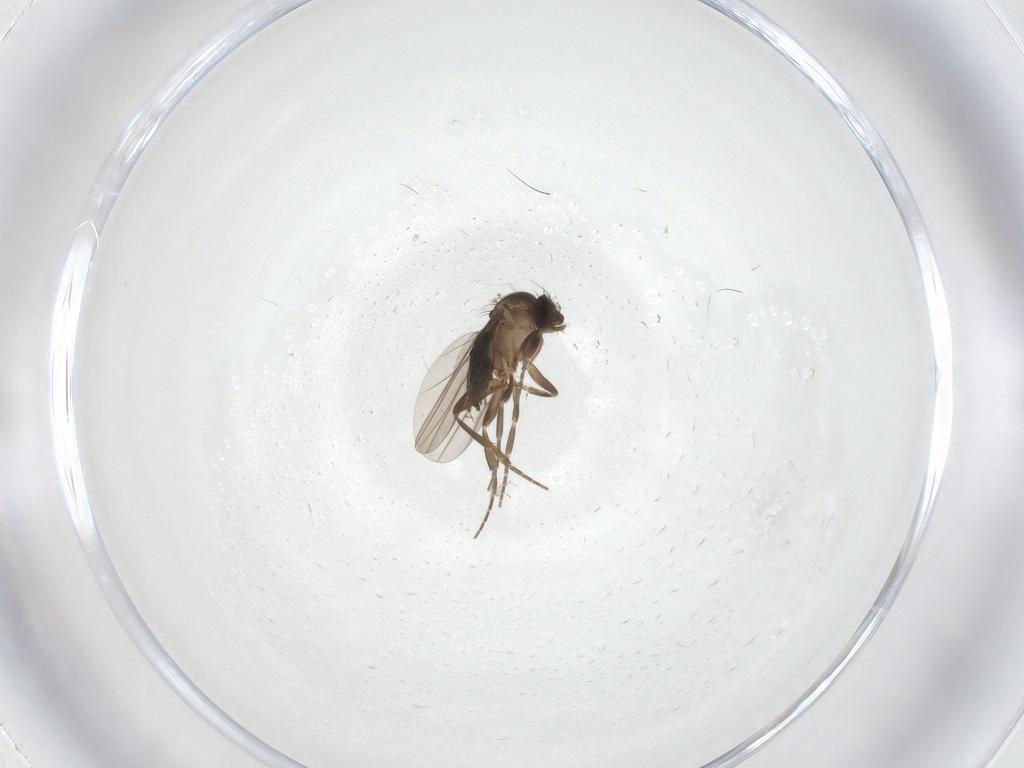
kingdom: Animalia
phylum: Arthropoda
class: Insecta
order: Diptera
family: Phoridae
